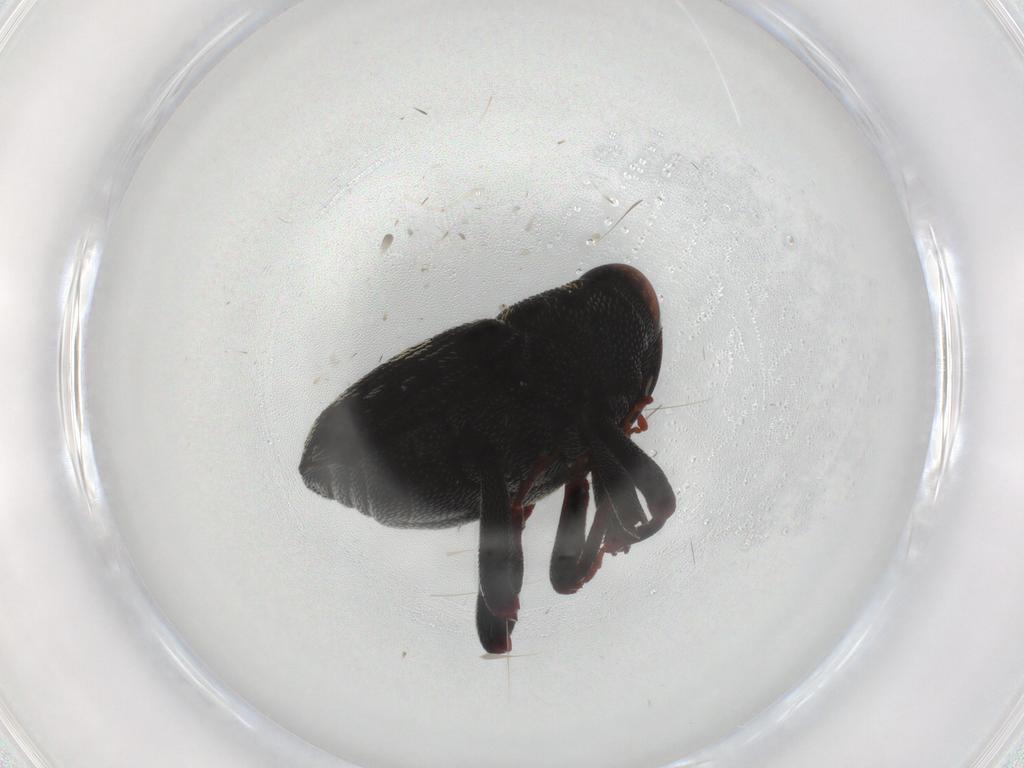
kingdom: Animalia
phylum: Arthropoda
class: Insecta
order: Coleoptera
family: Curculionidae
